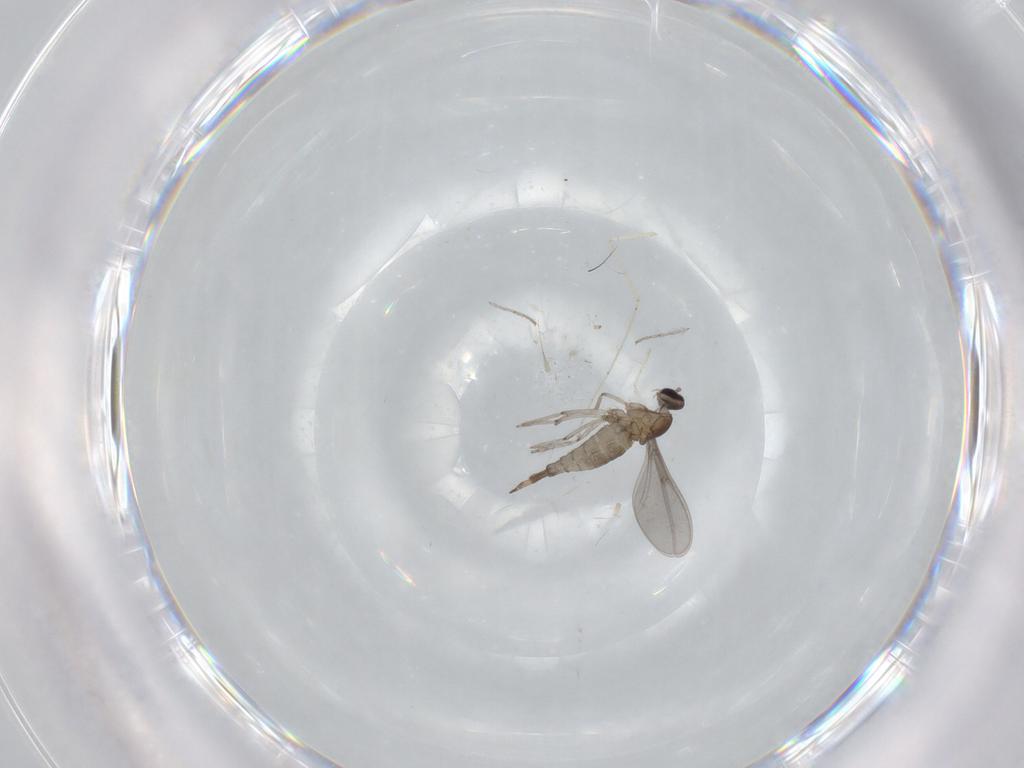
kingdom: Animalia
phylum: Arthropoda
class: Insecta
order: Diptera
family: Cecidomyiidae
